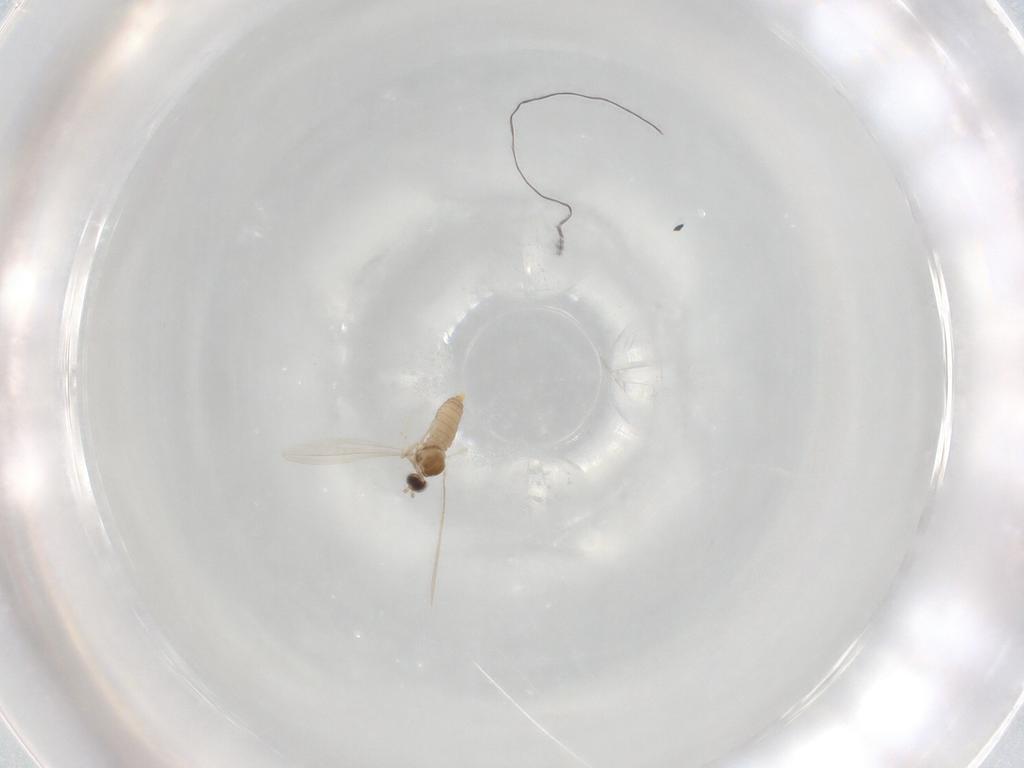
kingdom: Animalia
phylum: Arthropoda
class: Insecta
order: Diptera
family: Cecidomyiidae
